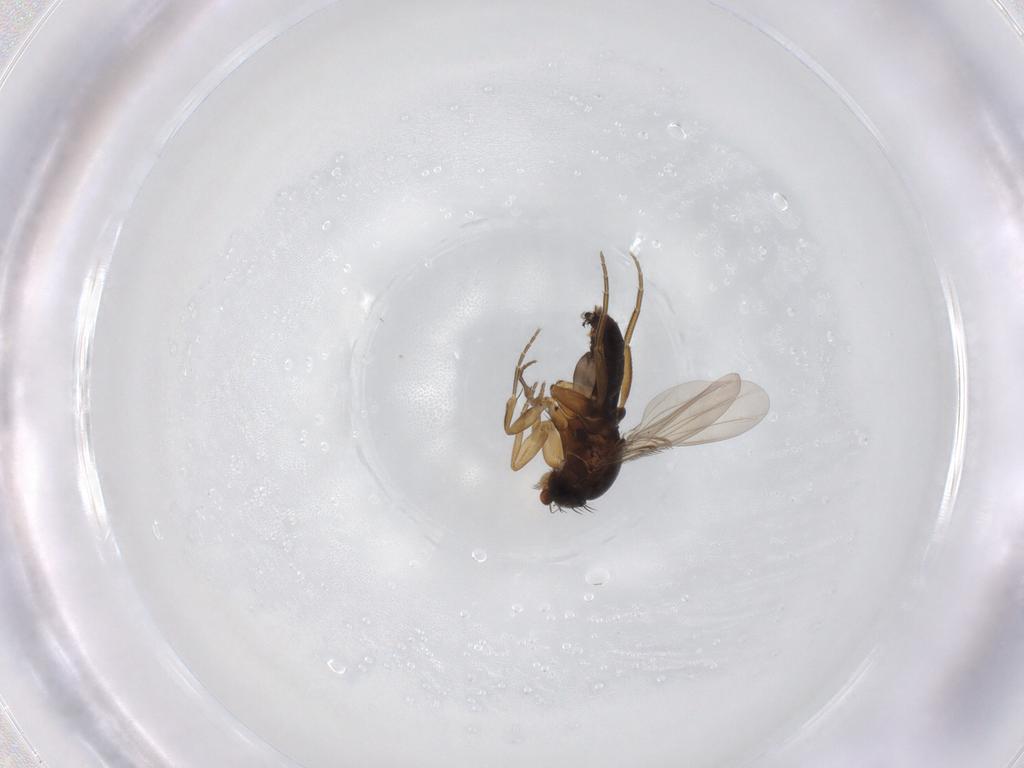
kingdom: Animalia
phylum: Arthropoda
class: Insecta
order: Diptera
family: Phoridae
